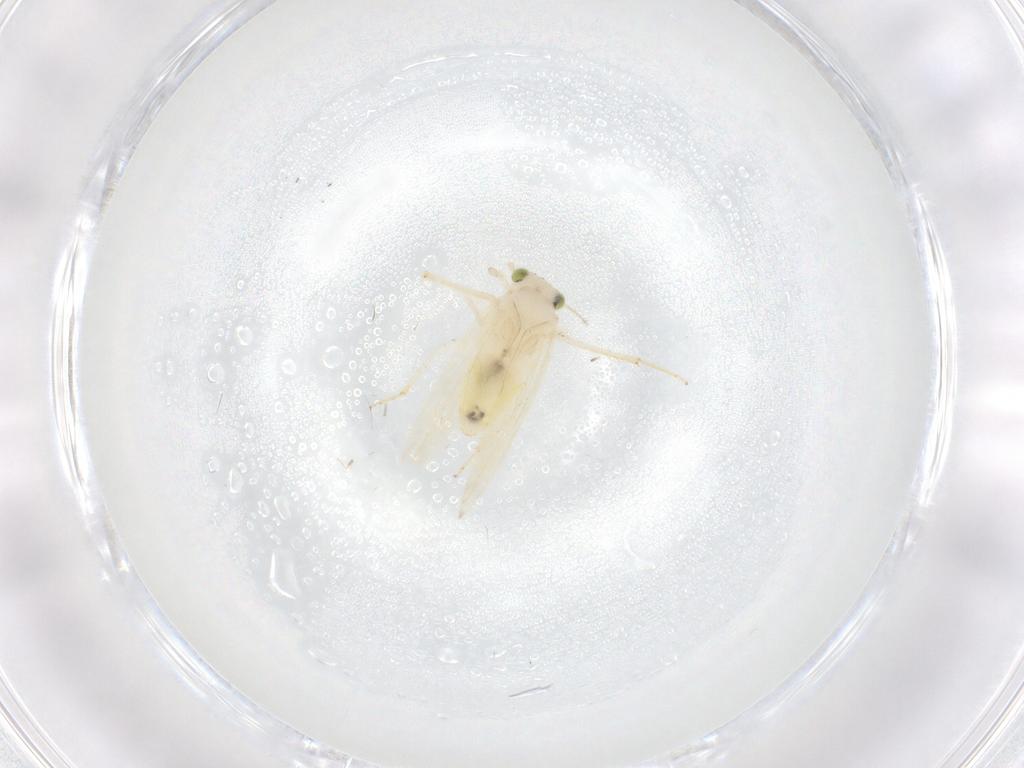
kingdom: Animalia
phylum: Arthropoda
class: Insecta
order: Psocodea
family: Lepidopsocidae
